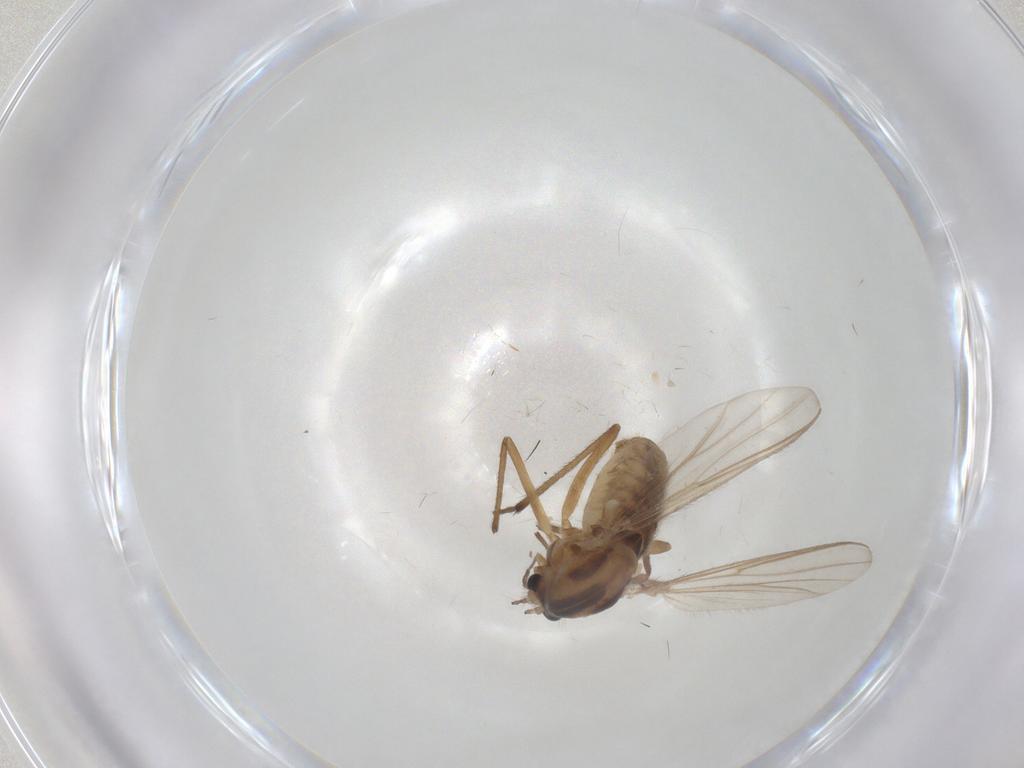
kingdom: Animalia
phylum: Arthropoda
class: Insecta
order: Diptera
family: Chironomidae
